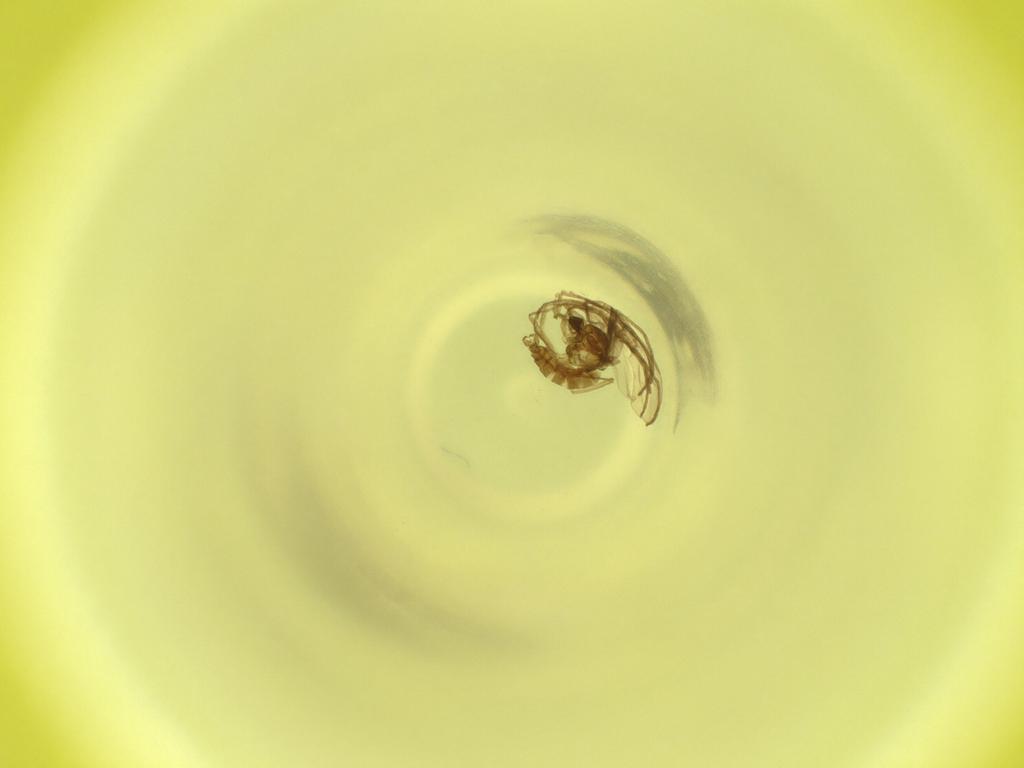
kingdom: Animalia
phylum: Arthropoda
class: Insecta
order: Diptera
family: Cecidomyiidae
